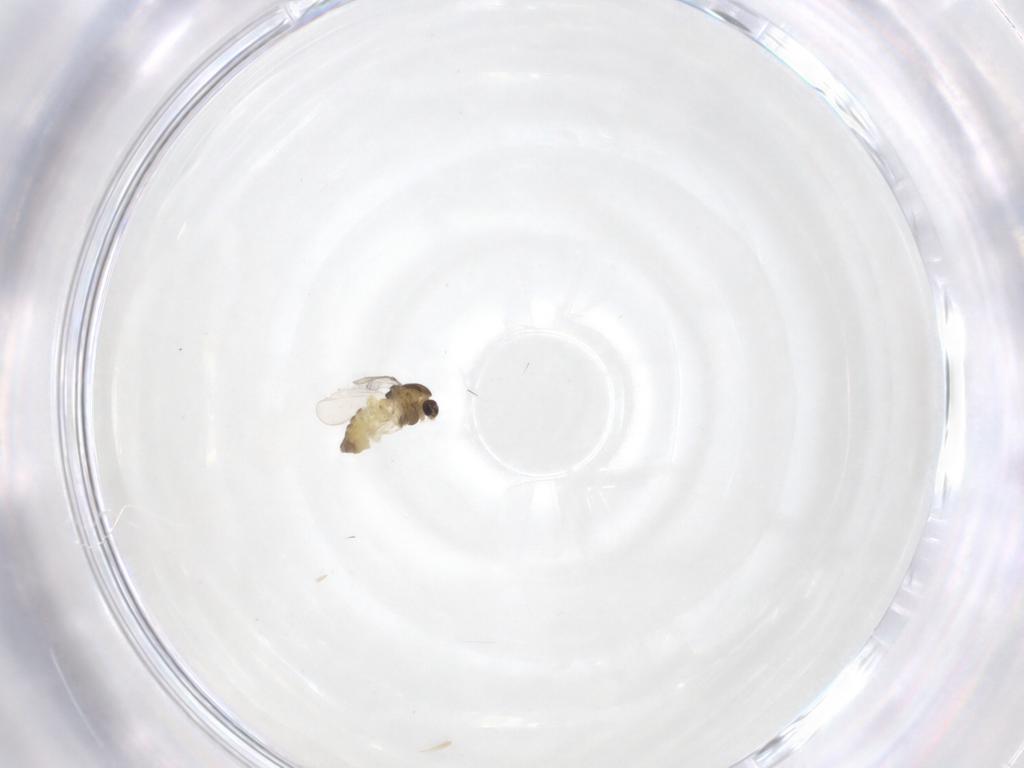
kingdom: Animalia
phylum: Arthropoda
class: Insecta
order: Diptera
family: Chironomidae
